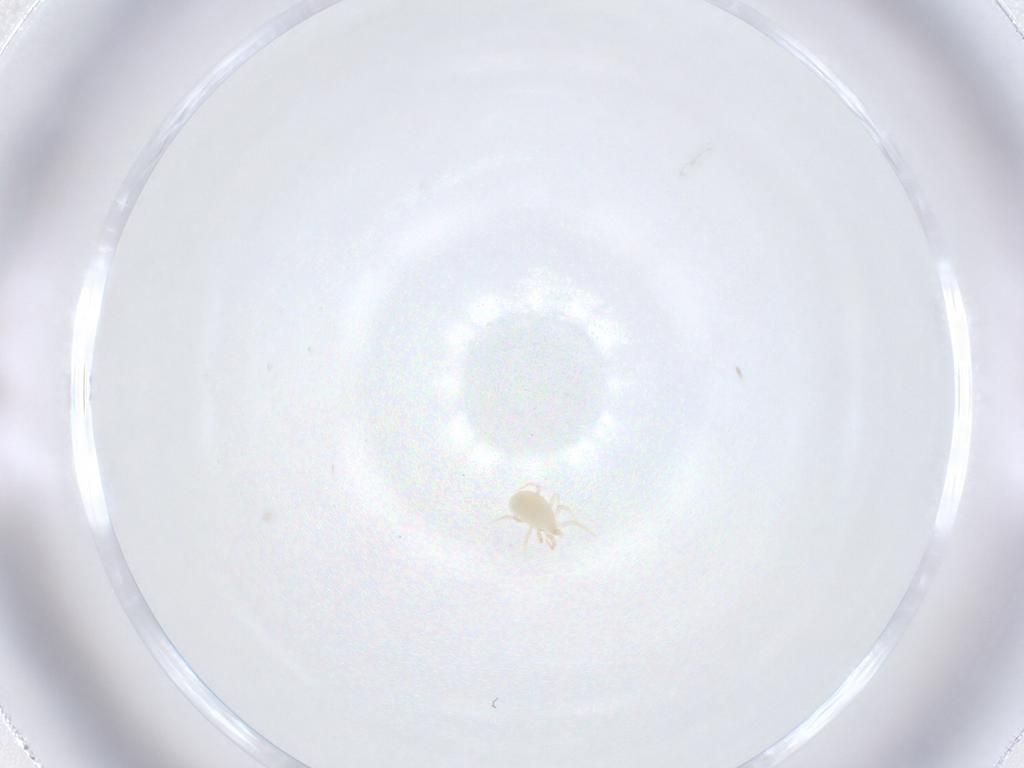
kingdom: Animalia
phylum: Arthropoda
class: Arachnida
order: Mesostigmata
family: Phytoseiidae
